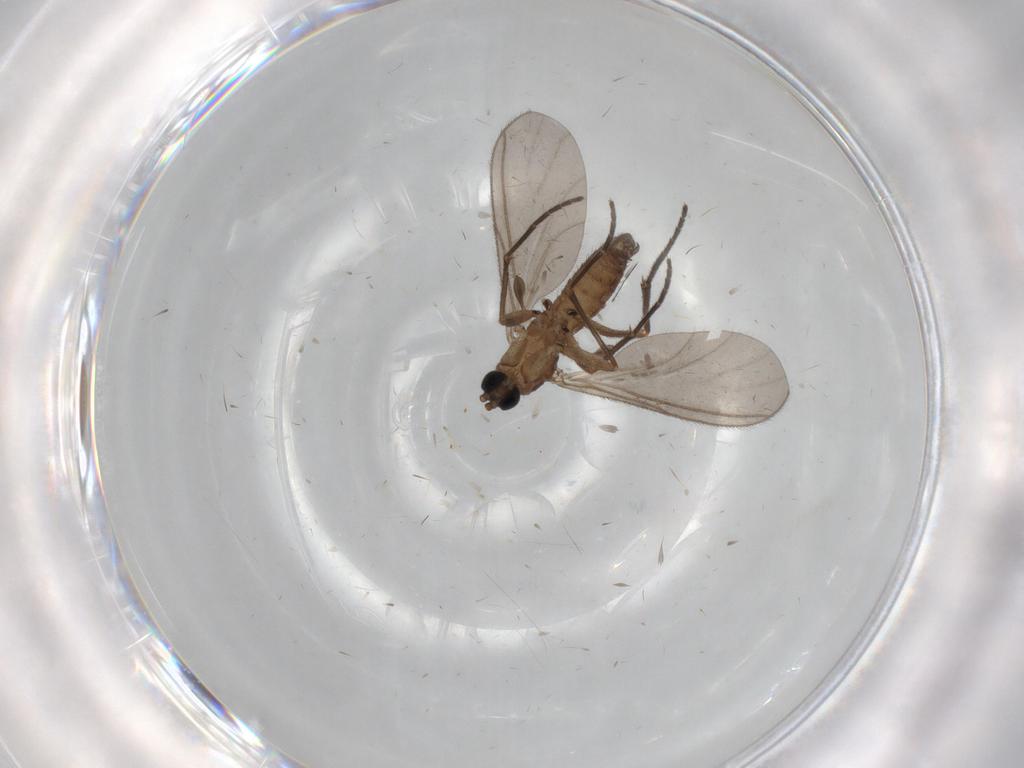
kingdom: Animalia
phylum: Arthropoda
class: Insecta
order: Diptera
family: Sciaridae
